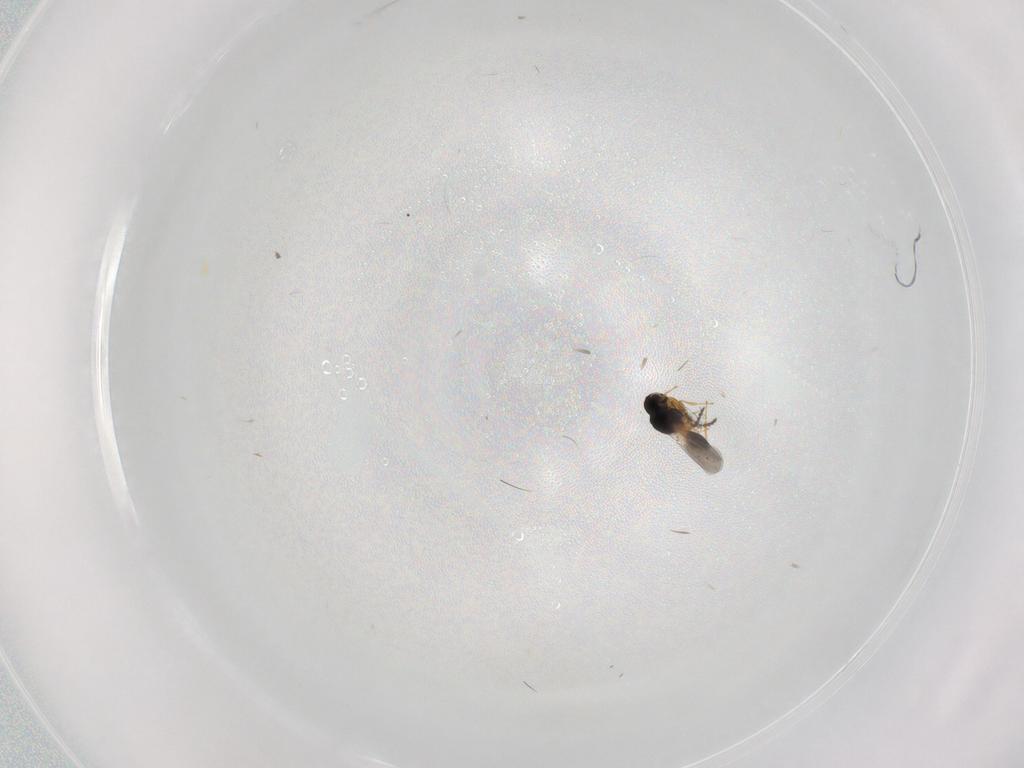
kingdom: Animalia
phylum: Arthropoda
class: Insecta
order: Hymenoptera
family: Platygastridae
